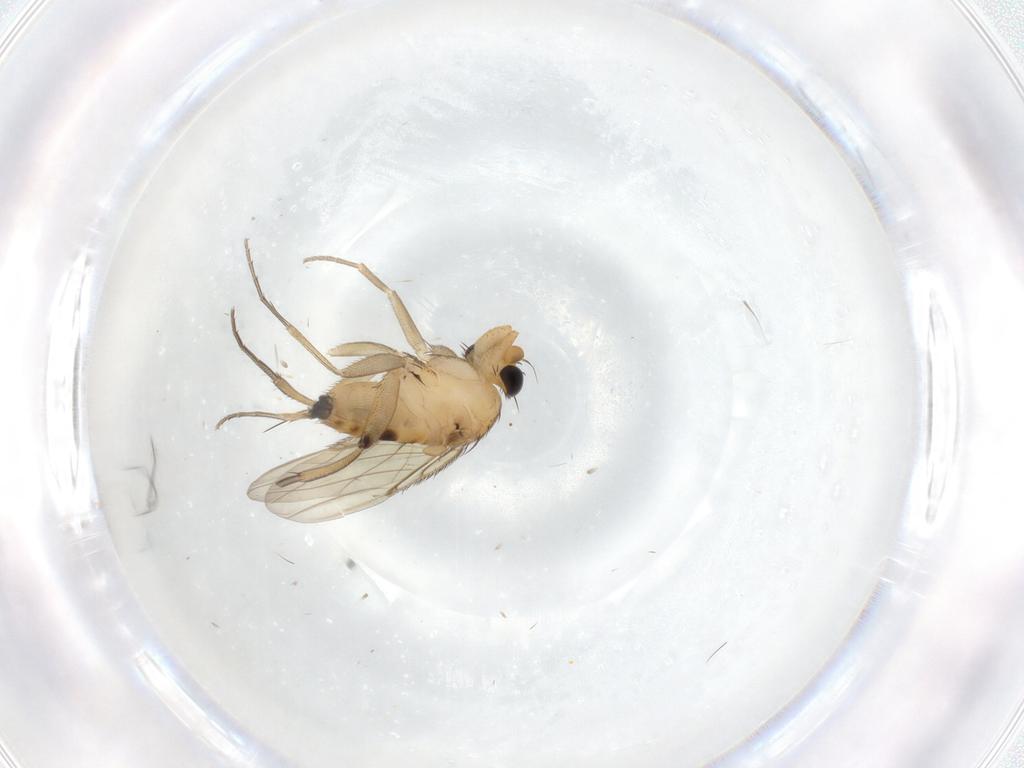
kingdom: Animalia
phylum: Arthropoda
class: Insecta
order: Diptera
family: Phoridae
